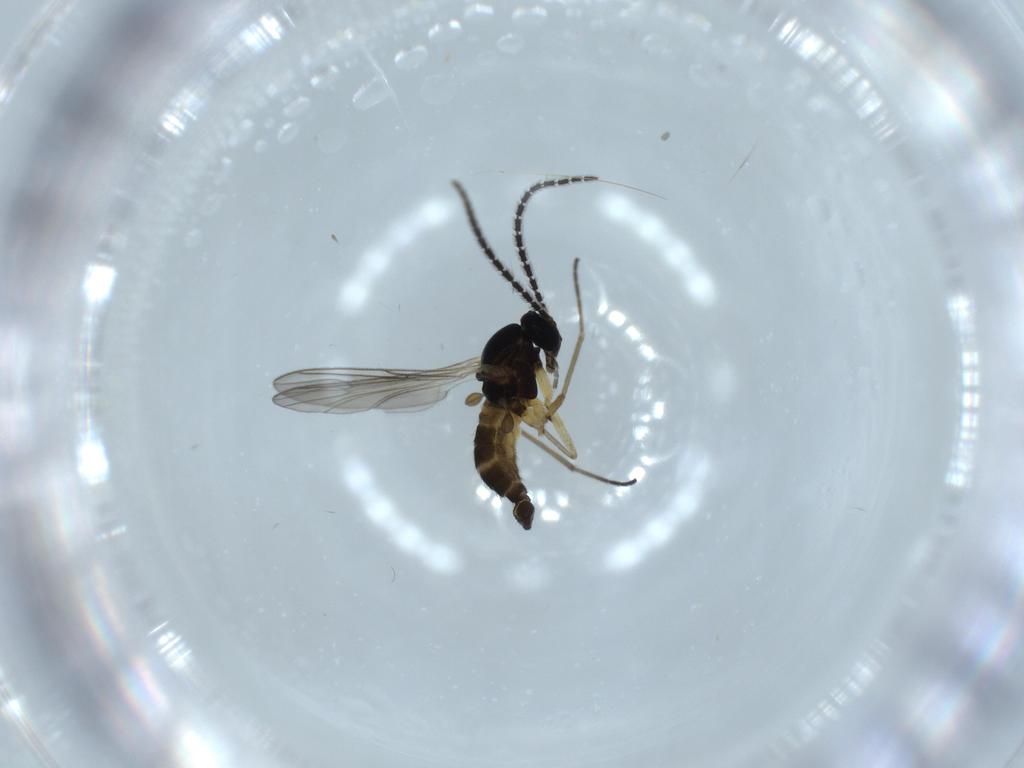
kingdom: Animalia
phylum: Arthropoda
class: Insecta
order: Diptera
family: Sciaridae
